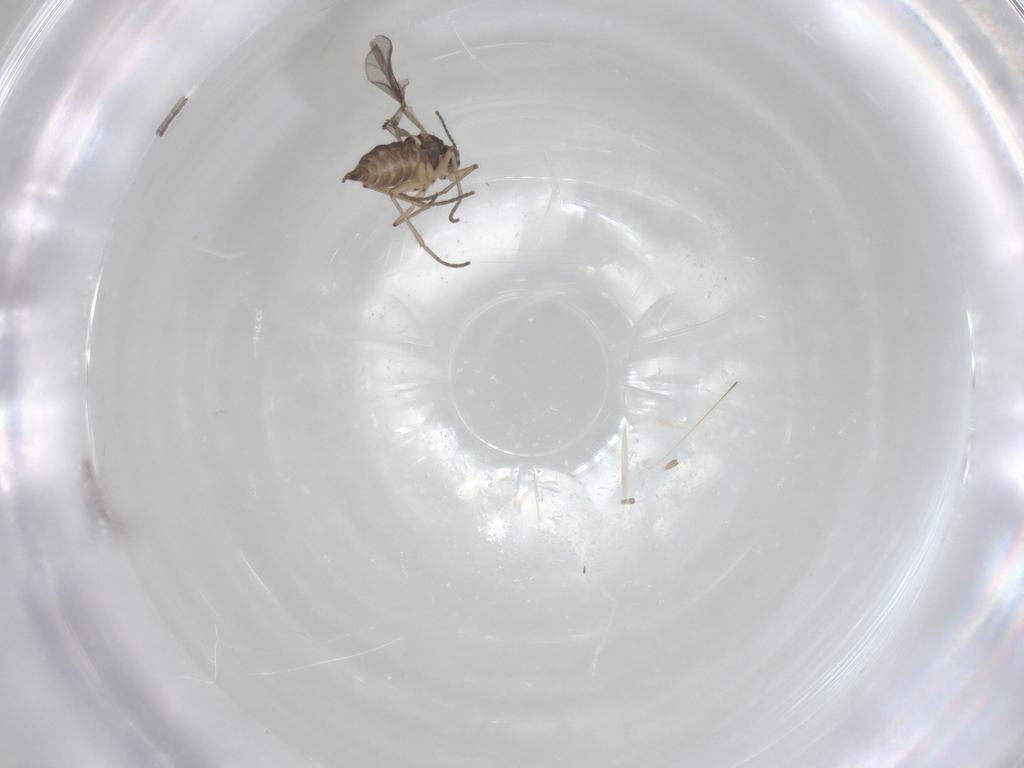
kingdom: Animalia
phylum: Arthropoda
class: Insecta
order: Diptera
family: Sciaridae
